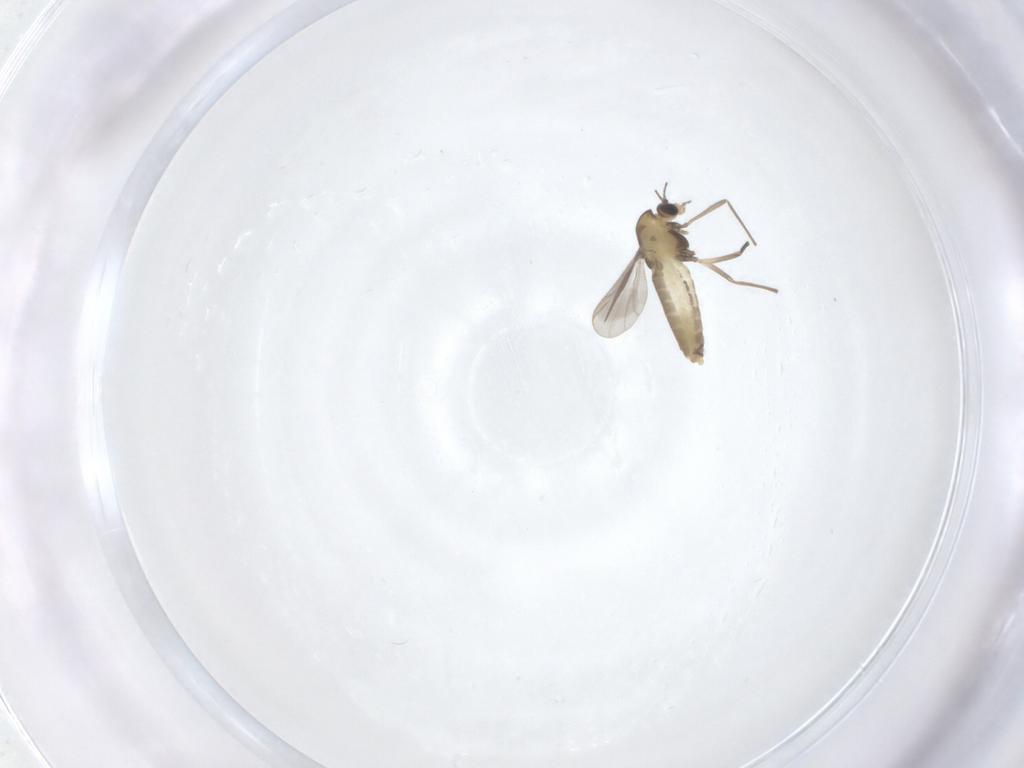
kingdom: Animalia
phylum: Arthropoda
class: Insecta
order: Diptera
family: Mycetophilidae
